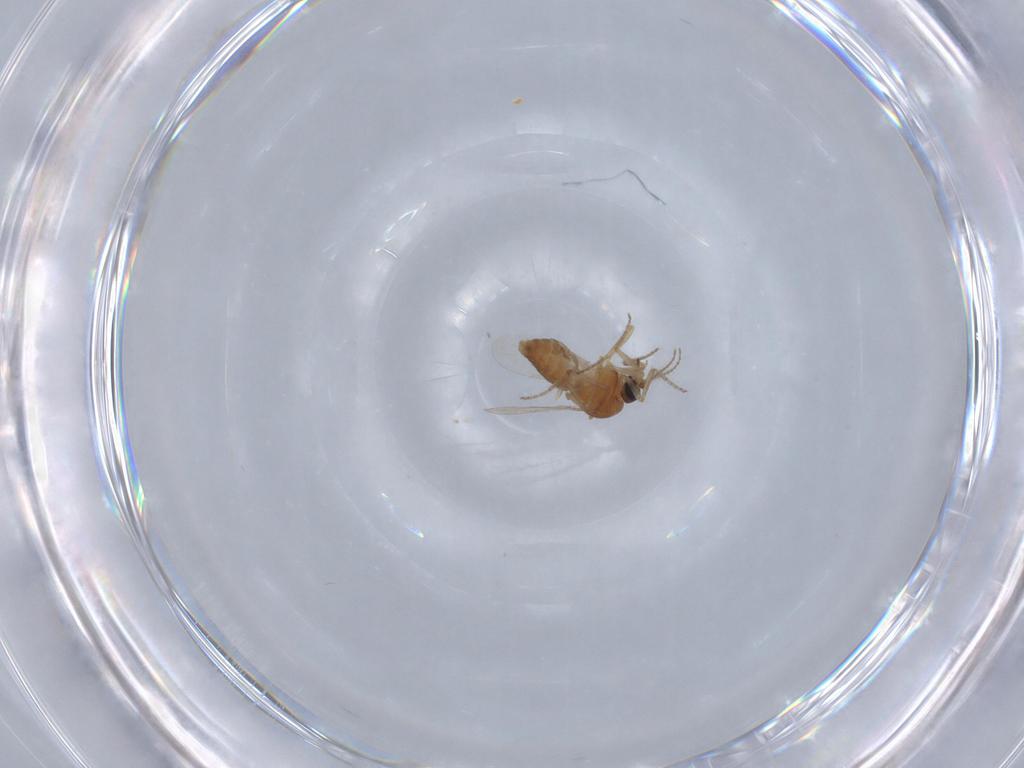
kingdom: Animalia
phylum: Arthropoda
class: Insecta
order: Diptera
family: Ceratopogonidae
